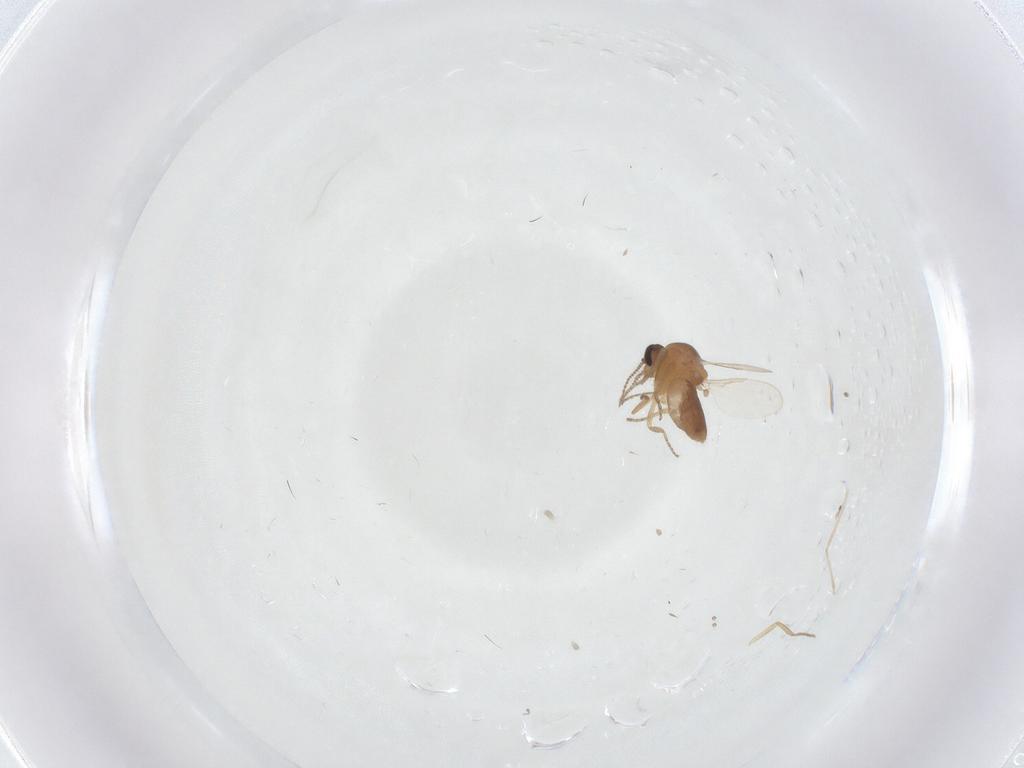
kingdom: Animalia
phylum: Arthropoda
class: Insecta
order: Diptera
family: Ceratopogonidae
